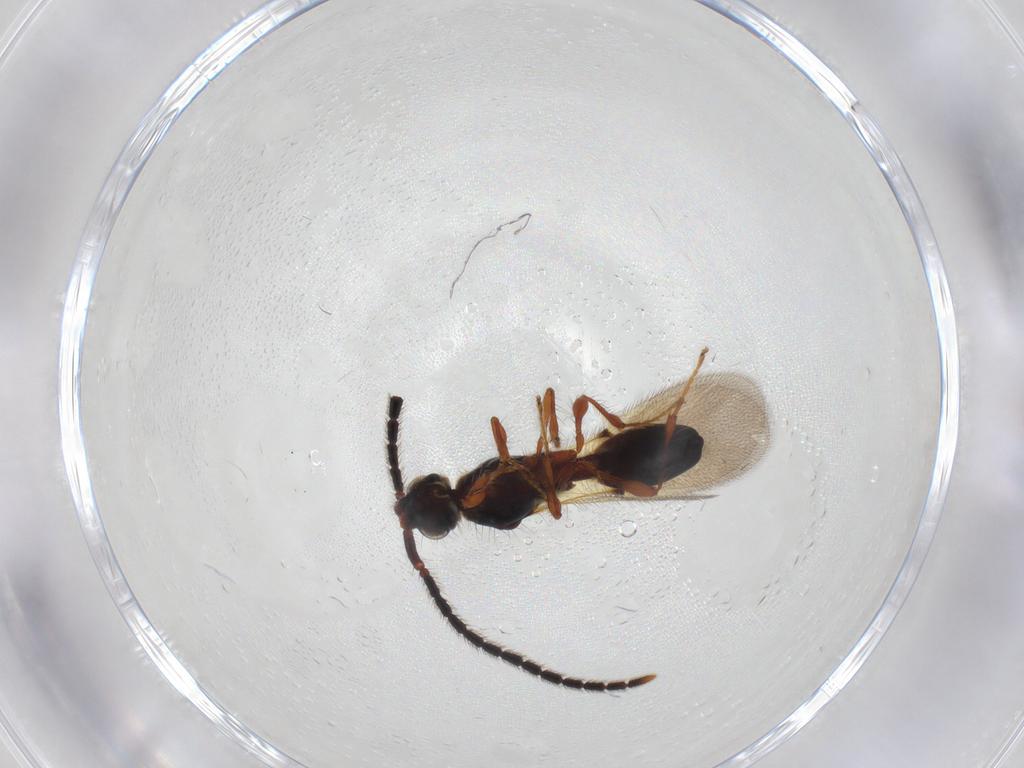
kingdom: Animalia
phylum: Arthropoda
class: Insecta
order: Hymenoptera
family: Diapriidae
